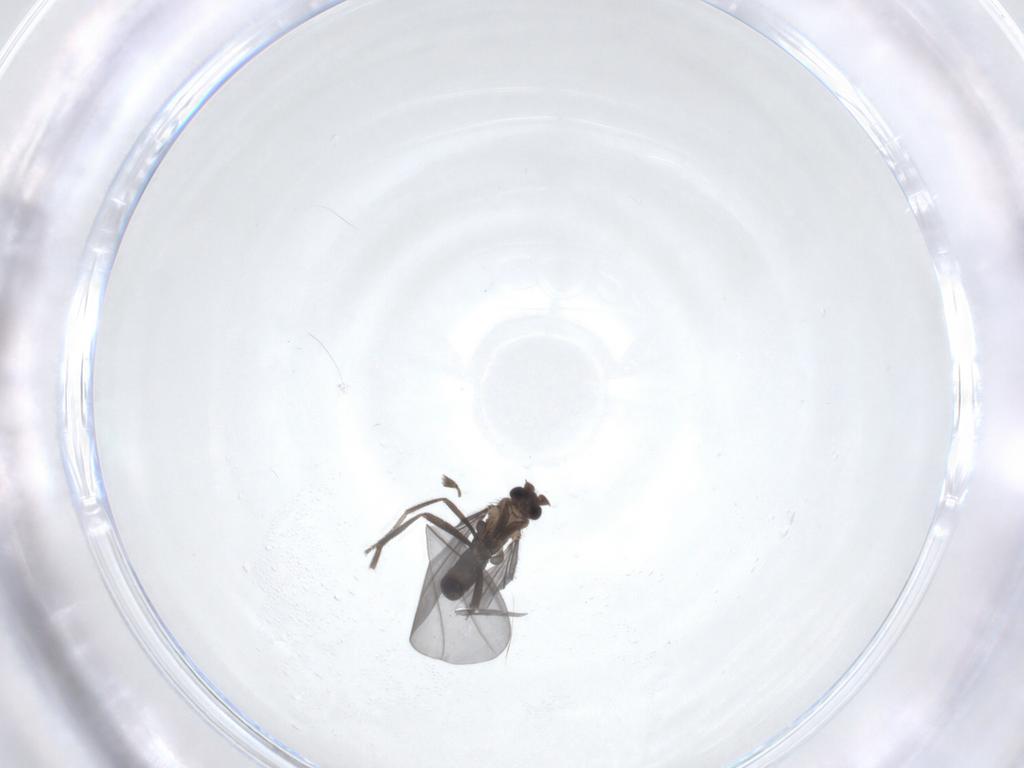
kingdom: Animalia
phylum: Arthropoda
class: Insecta
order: Diptera
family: Phoridae
